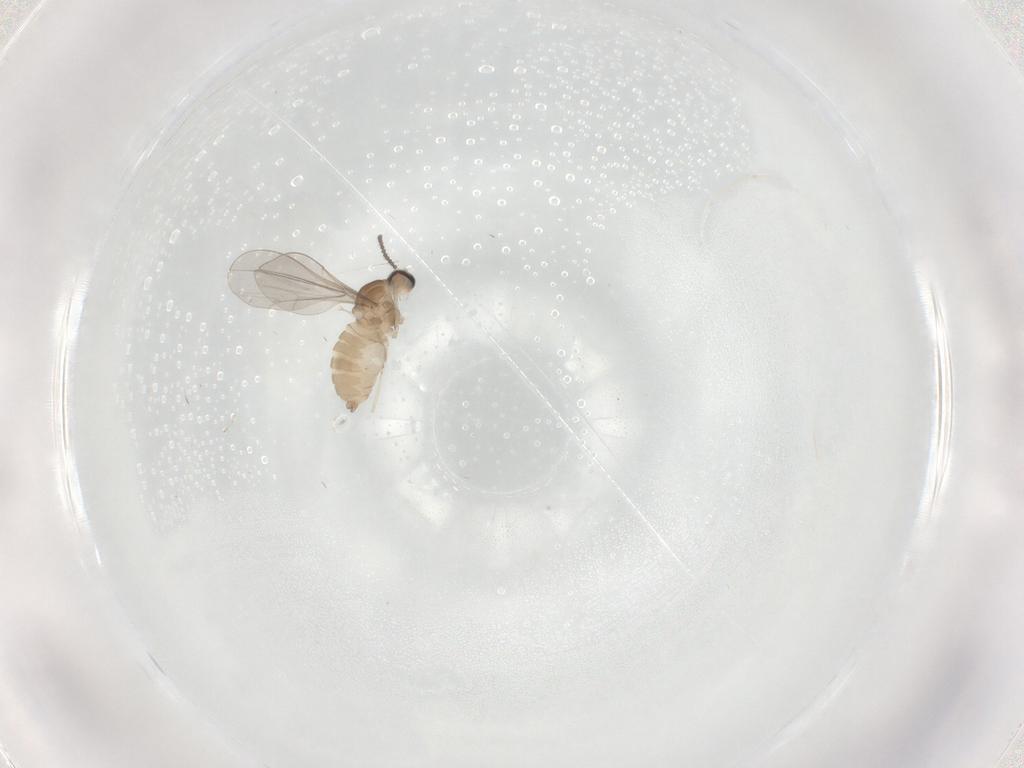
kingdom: Animalia
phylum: Arthropoda
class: Insecta
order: Diptera
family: Cecidomyiidae
